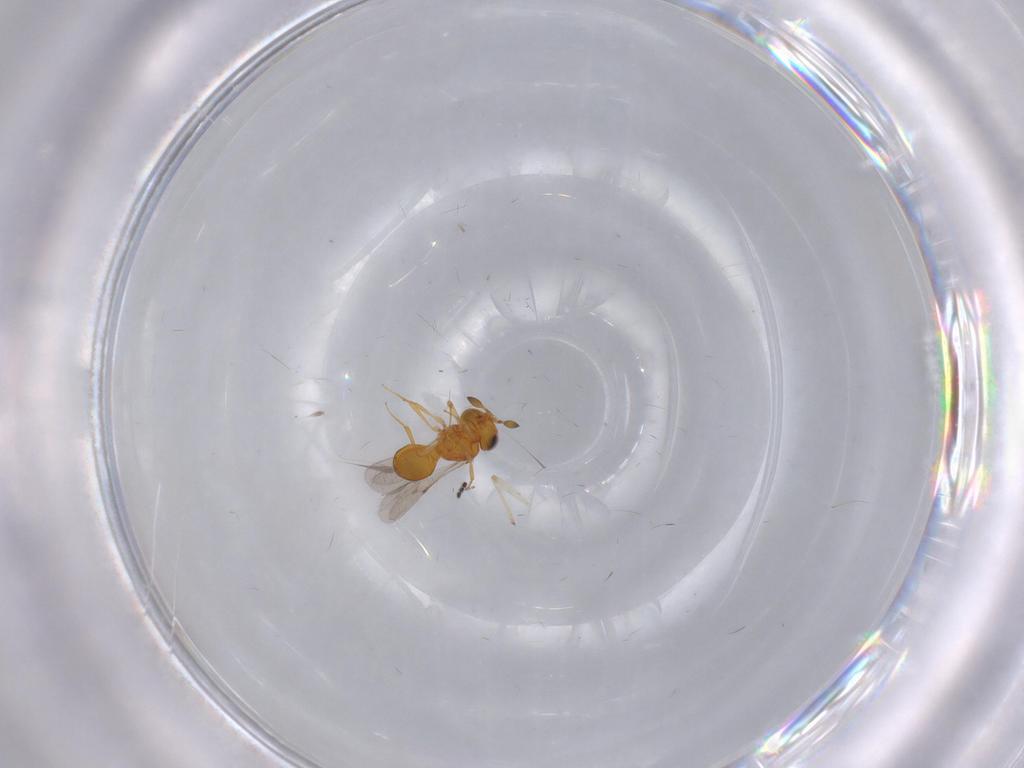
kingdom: Animalia
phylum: Arthropoda
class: Insecta
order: Hymenoptera
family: Scelionidae
